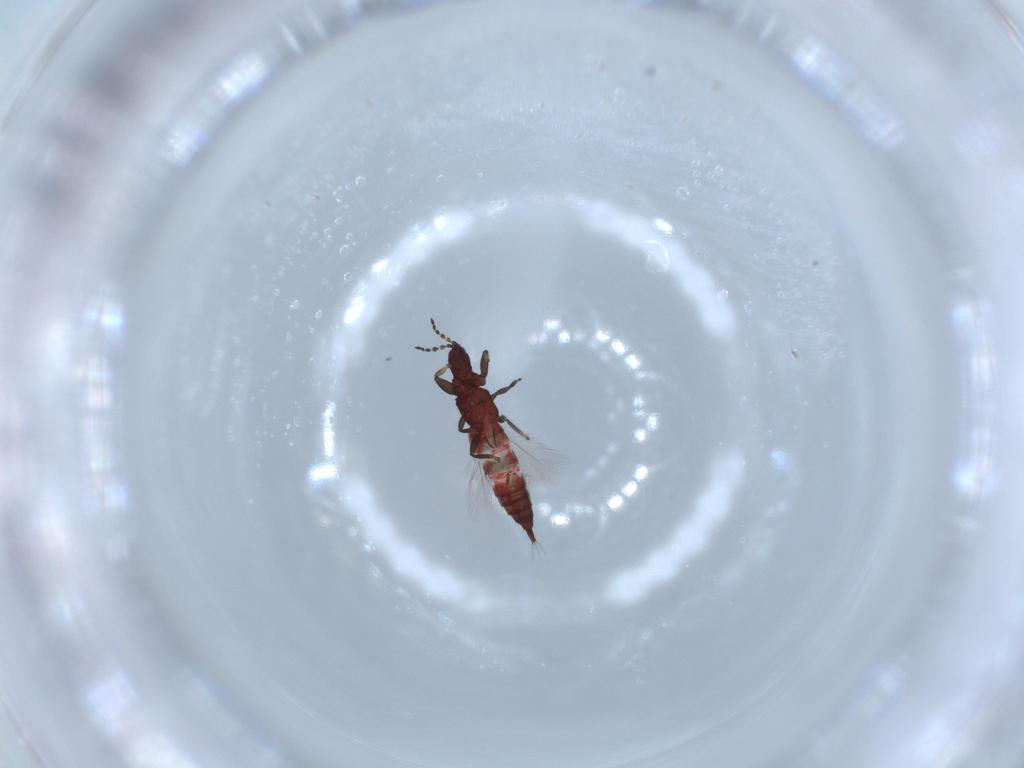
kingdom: Animalia
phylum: Arthropoda
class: Insecta
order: Thysanoptera
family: Phlaeothripidae
